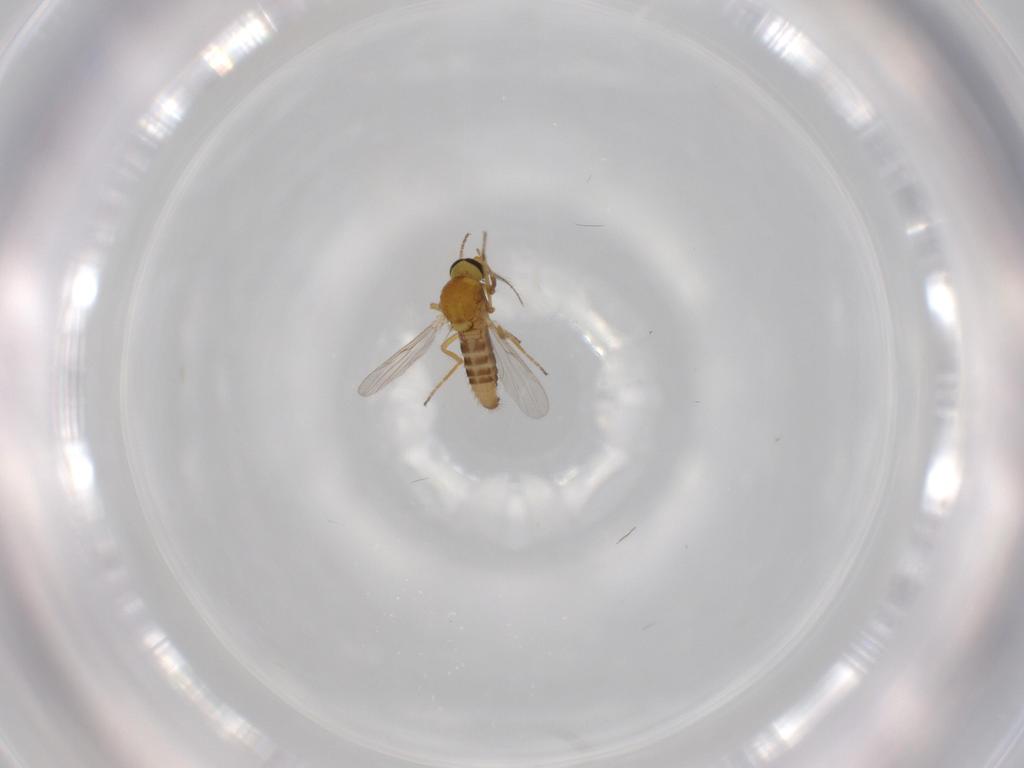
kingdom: Animalia
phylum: Arthropoda
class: Insecta
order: Diptera
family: Ceratopogonidae
